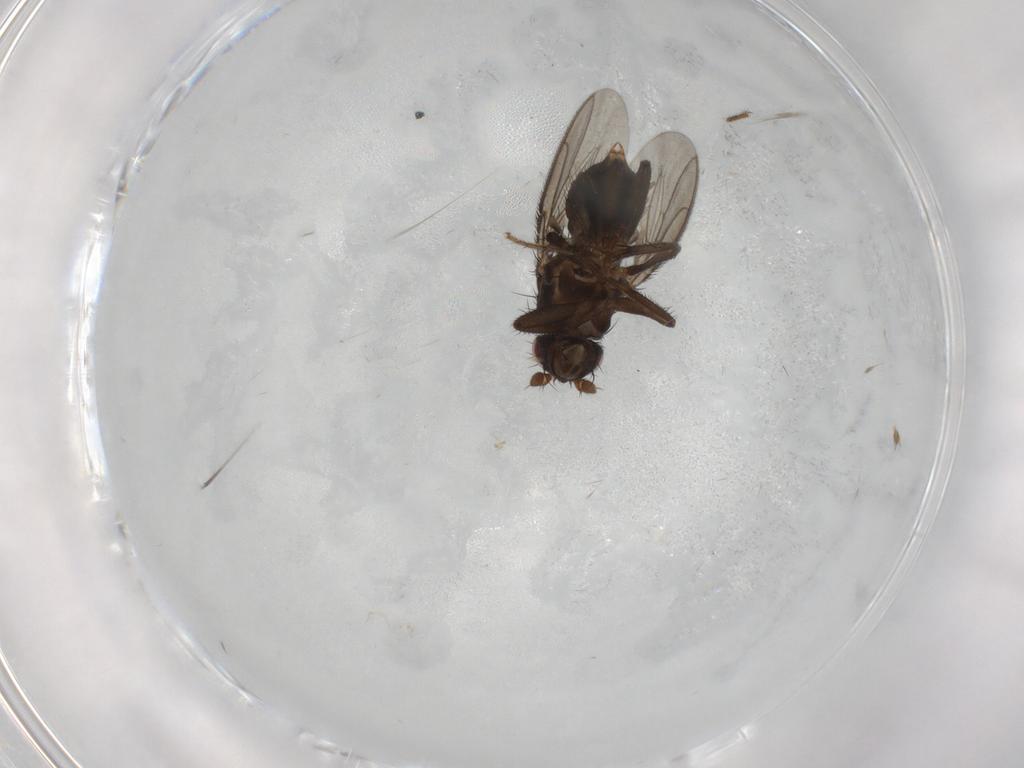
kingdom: Animalia
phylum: Arthropoda
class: Insecta
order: Diptera
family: Sphaeroceridae
